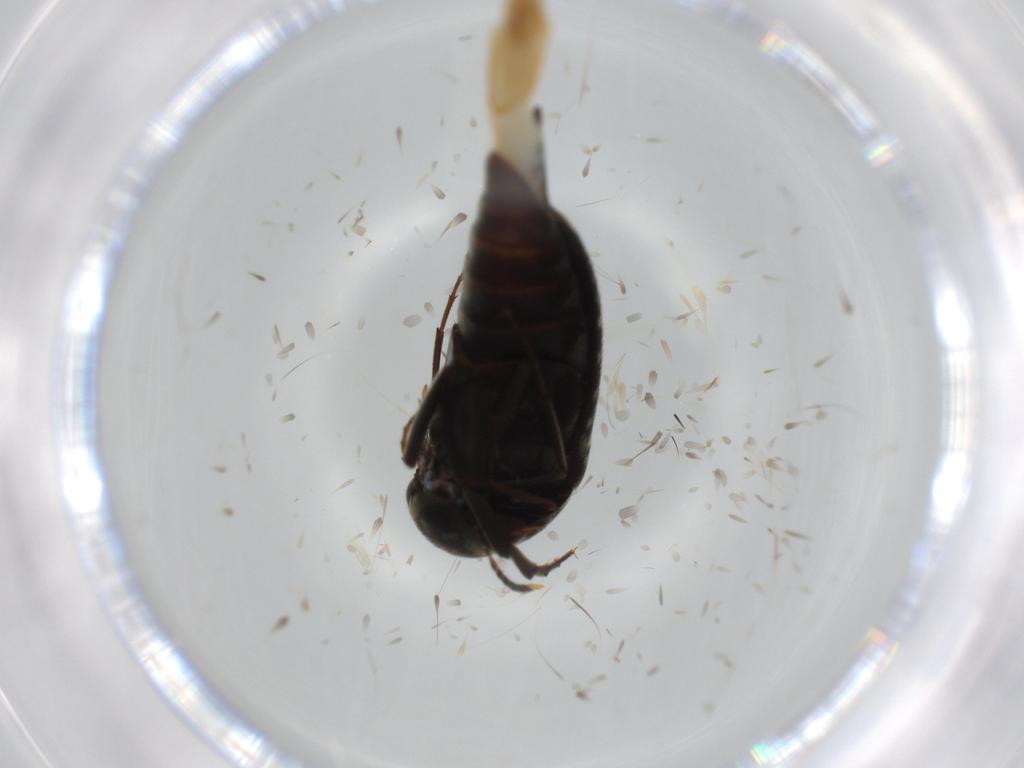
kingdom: Animalia
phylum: Arthropoda
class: Insecta
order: Coleoptera
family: Mordellidae
